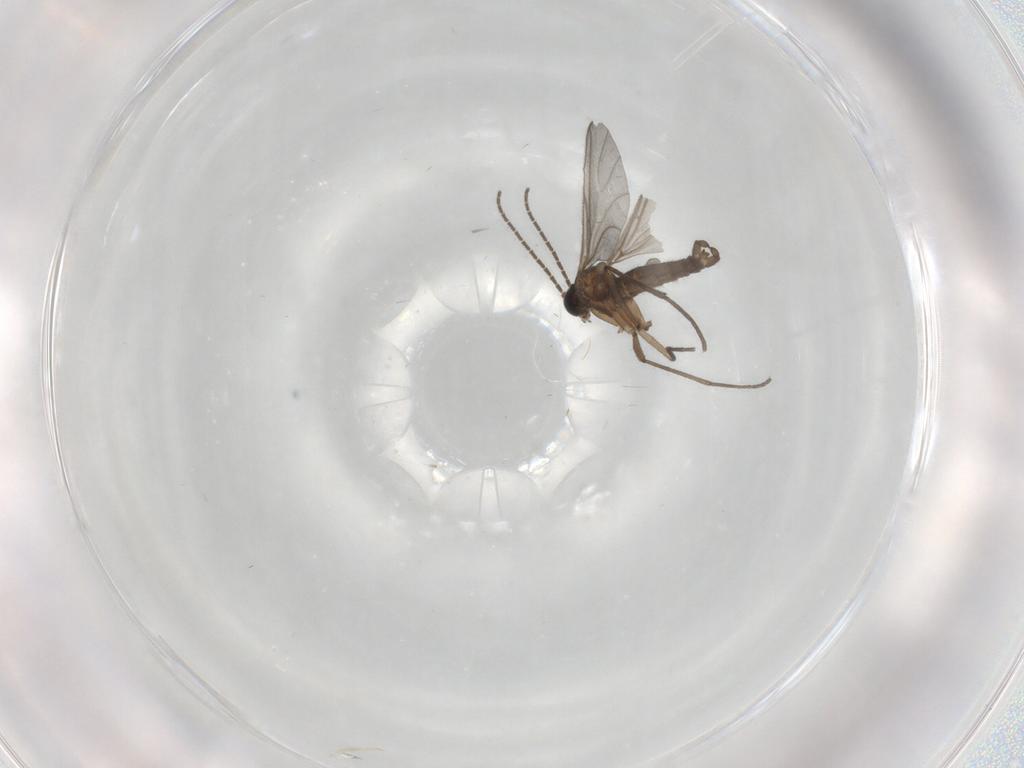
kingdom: Animalia
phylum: Arthropoda
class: Insecta
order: Diptera
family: Sciaridae
